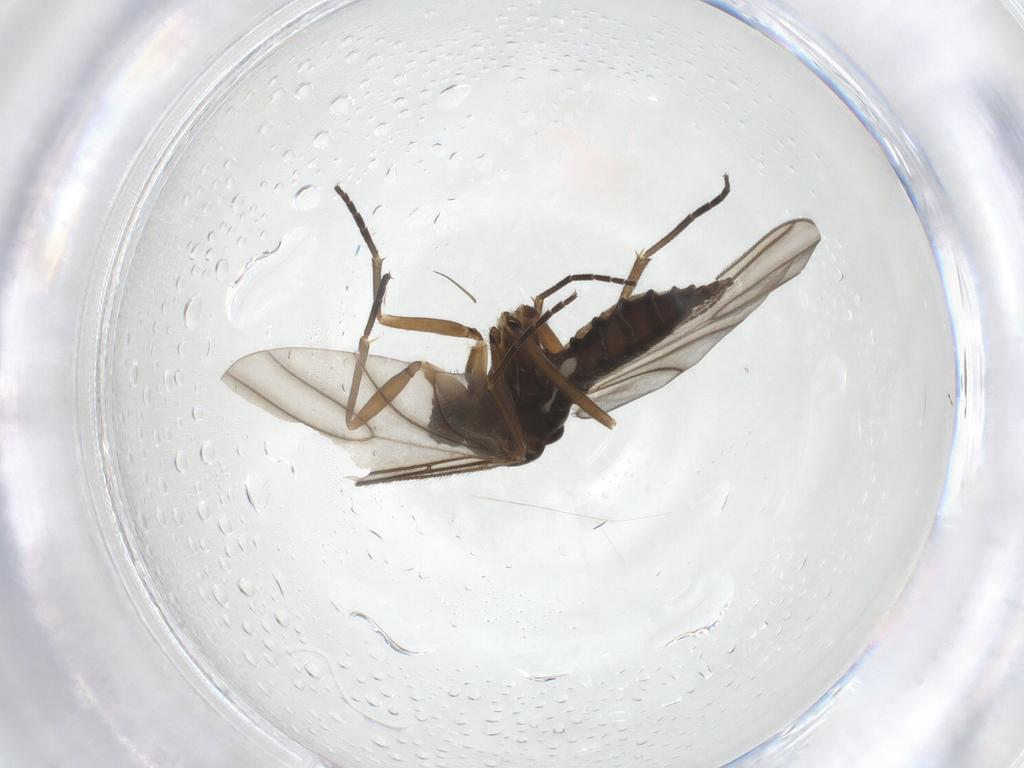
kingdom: Animalia
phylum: Arthropoda
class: Insecta
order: Diptera
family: Sciaridae
